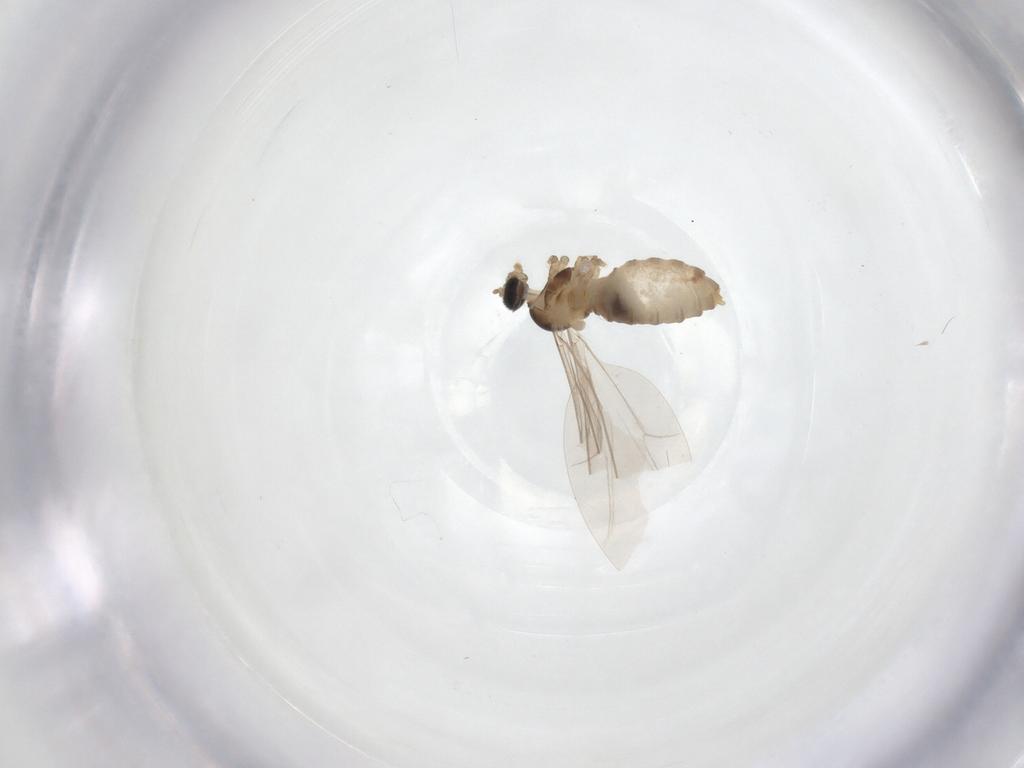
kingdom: Animalia
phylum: Arthropoda
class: Insecta
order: Diptera
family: Cecidomyiidae
